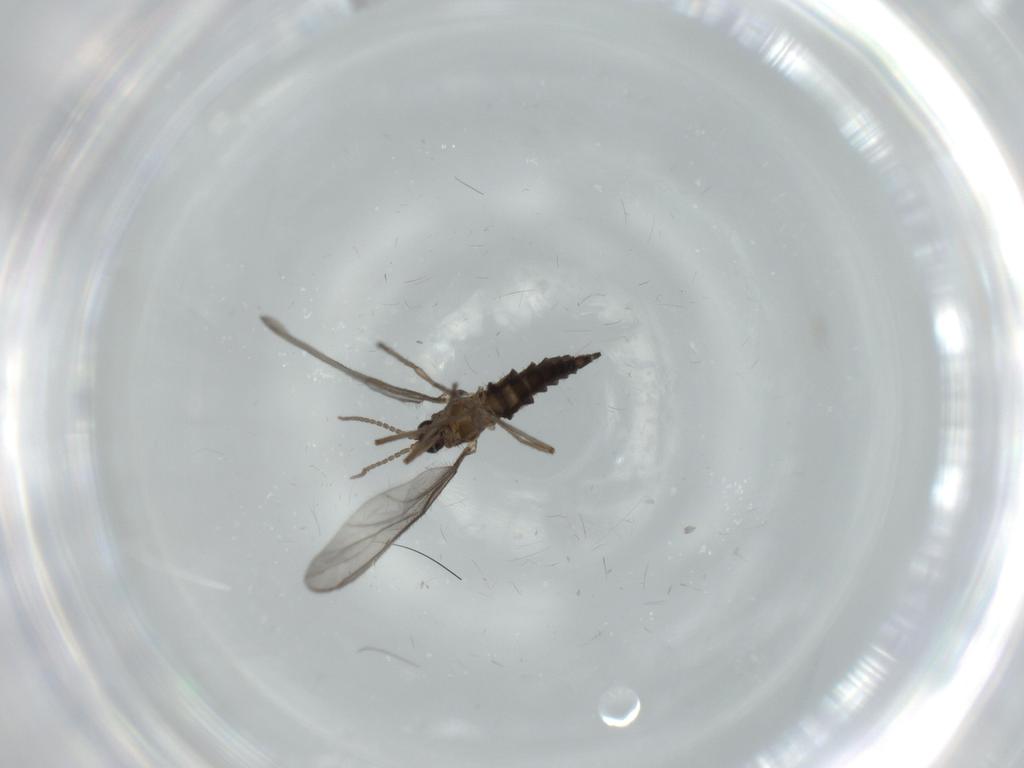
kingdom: Animalia
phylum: Arthropoda
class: Insecta
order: Diptera
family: Sciaridae
